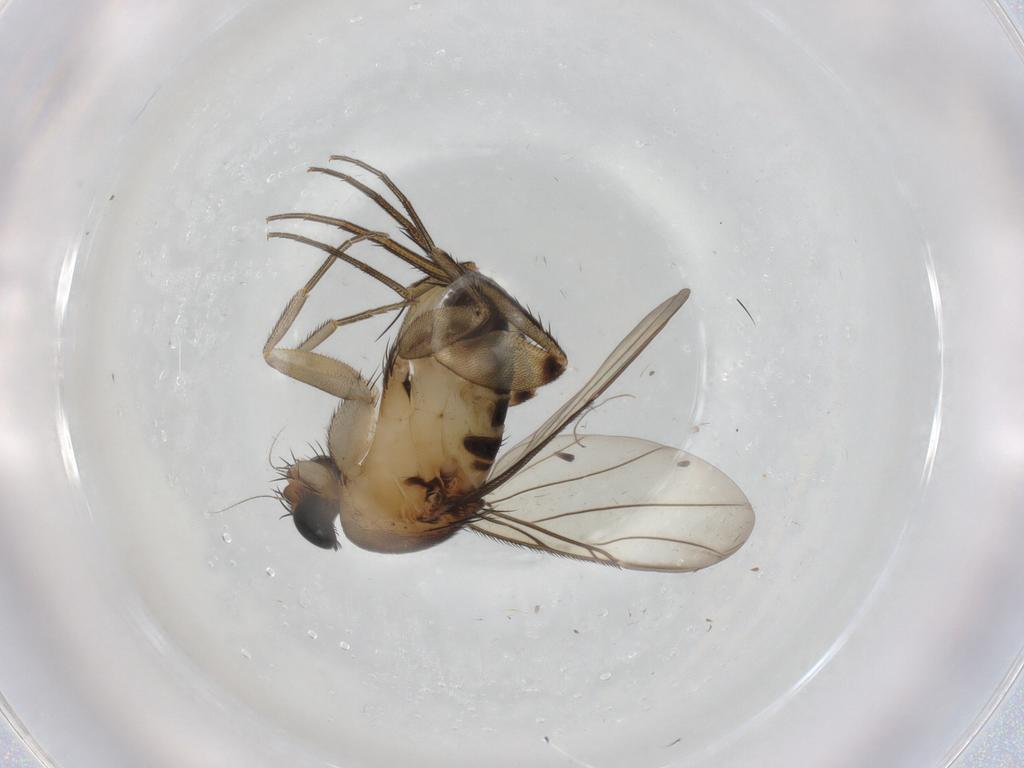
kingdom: Animalia
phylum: Arthropoda
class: Insecta
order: Diptera
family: Phoridae
